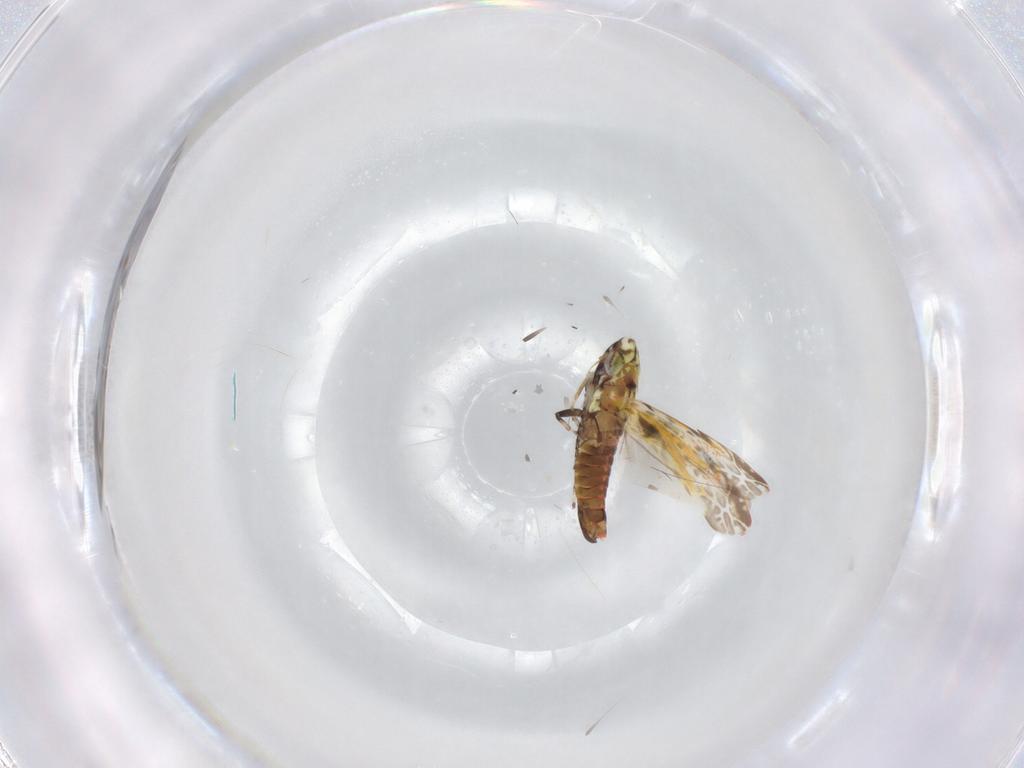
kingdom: Animalia
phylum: Arthropoda
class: Insecta
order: Hemiptera
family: Cicadellidae
